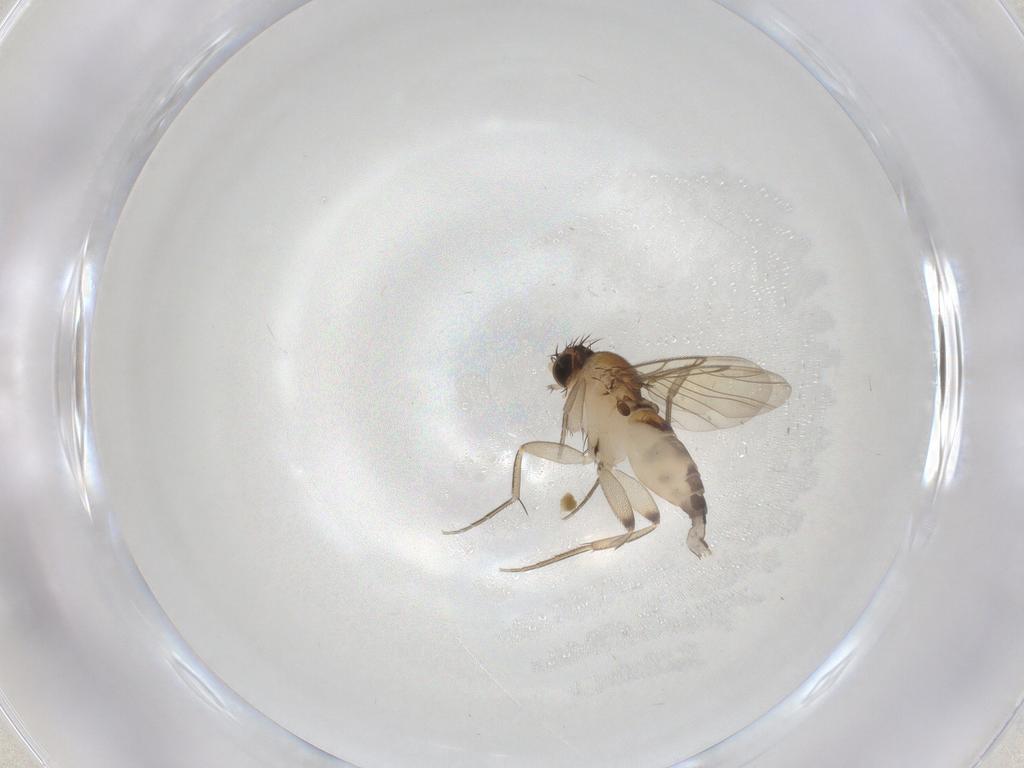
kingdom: Animalia
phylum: Arthropoda
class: Insecta
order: Diptera
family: Phoridae
